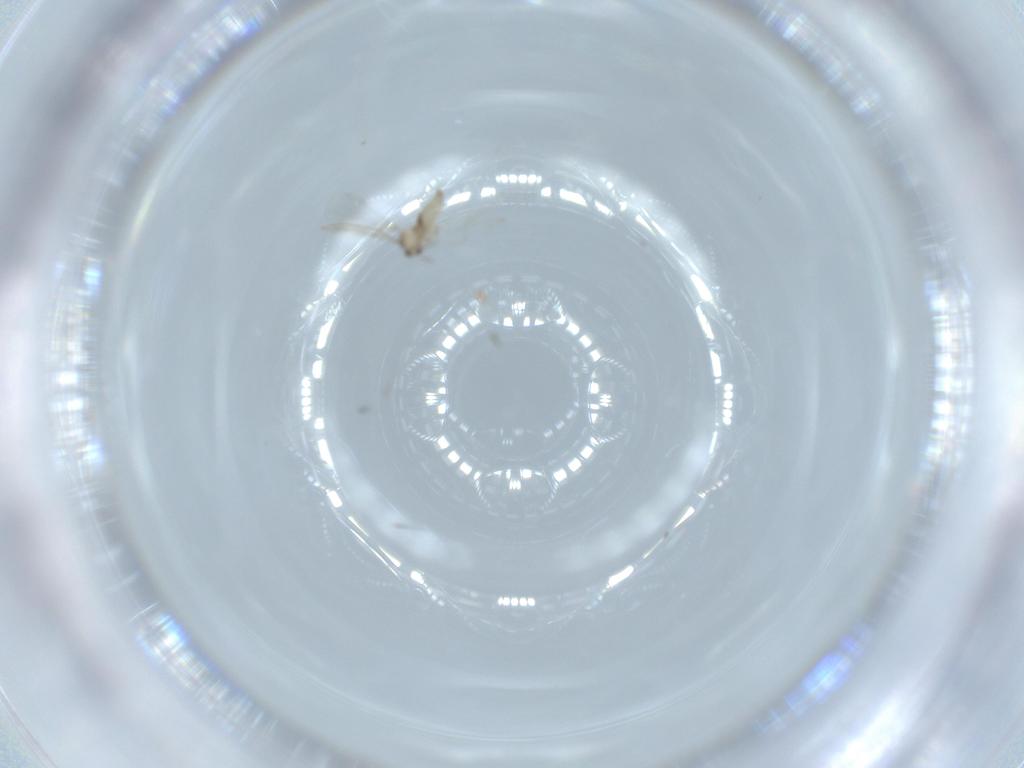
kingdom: Animalia
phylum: Arthropoda
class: Insecta
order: Diptera
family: Cecidomyiidae
